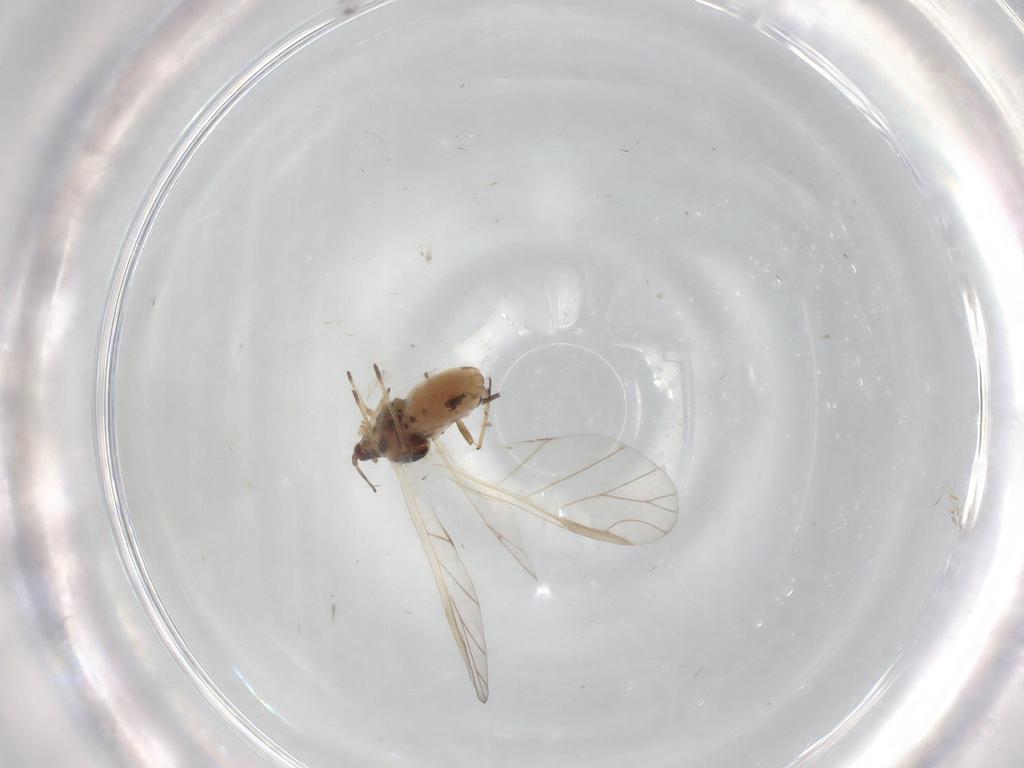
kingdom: Animalia
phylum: Arthropoda
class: Insecta
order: Hemiptera
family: Aphididae
